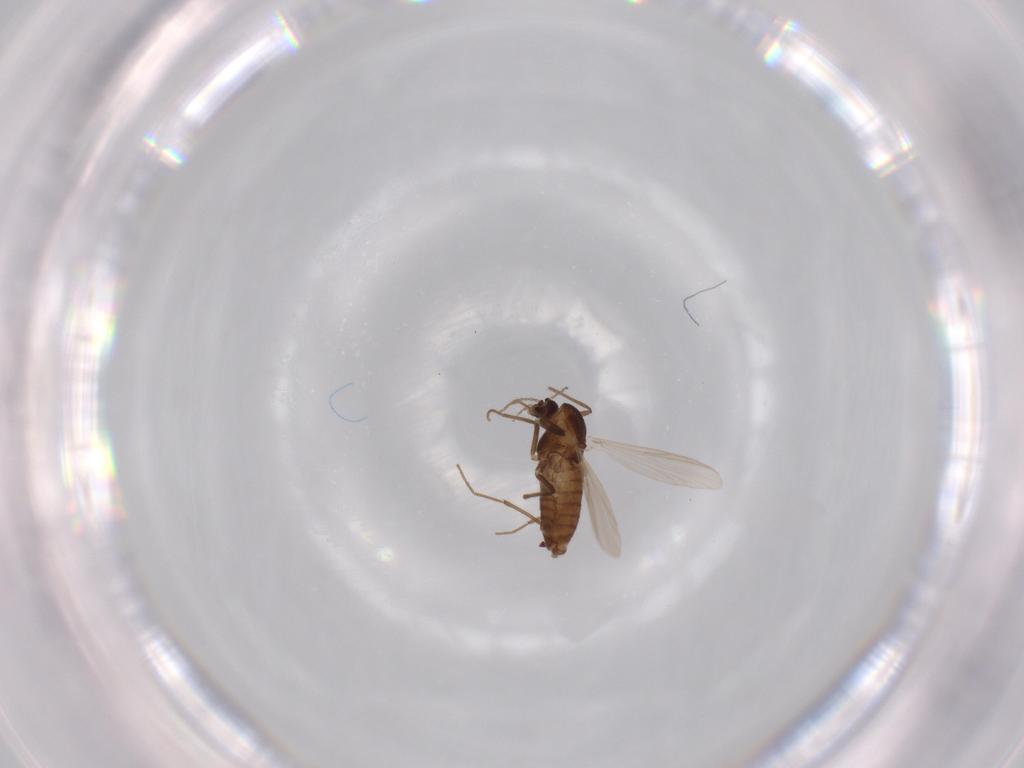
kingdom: Animalia
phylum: Arthropoda
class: Insecta
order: Diptera
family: Chironomidae
